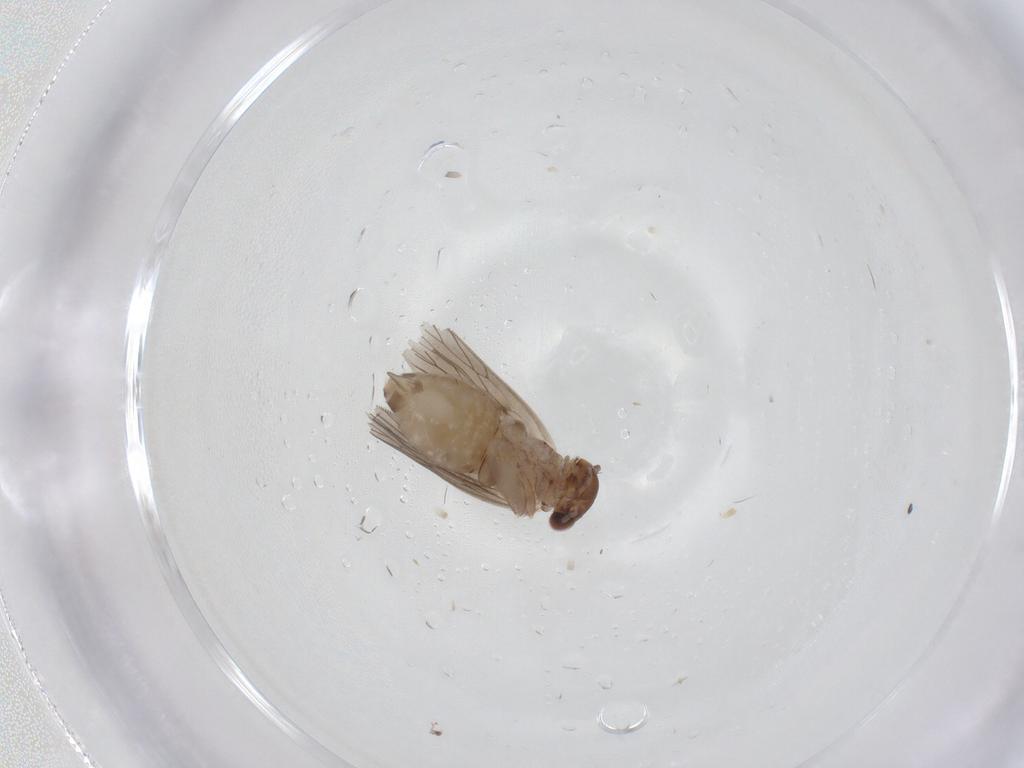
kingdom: Animalia
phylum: Arthropoda
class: Insecta
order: Psocodea
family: Lepidopsocidae
